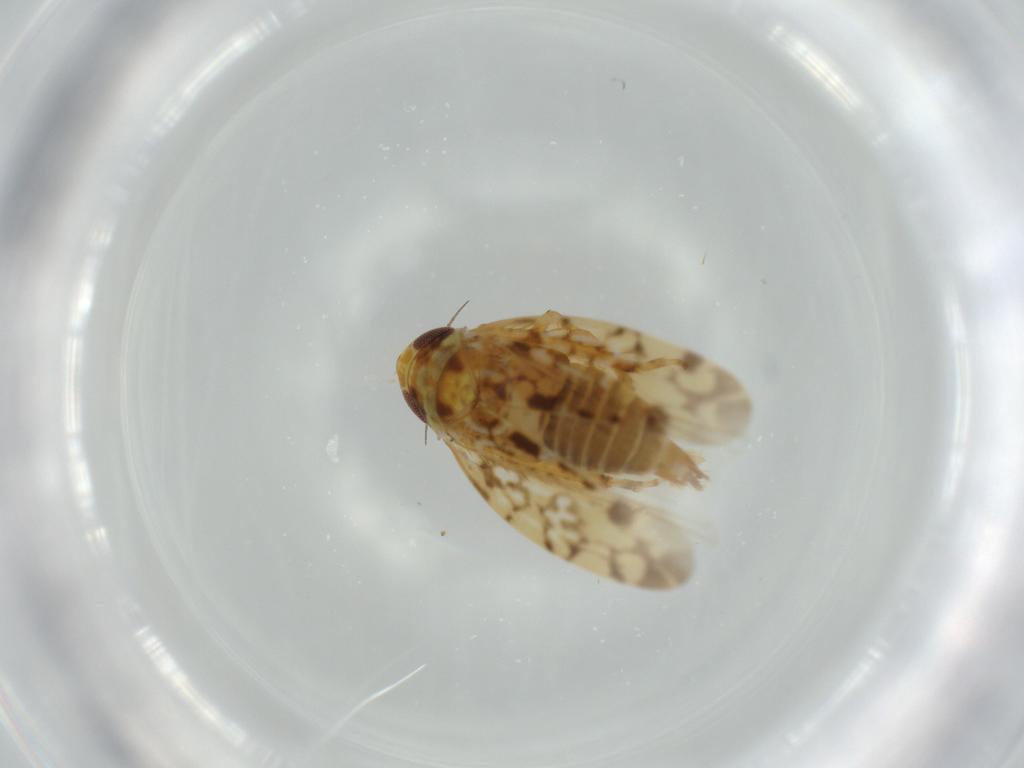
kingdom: Animalia
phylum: Arthropoda
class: Insecta
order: Hemiptera
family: Cicadellidae
